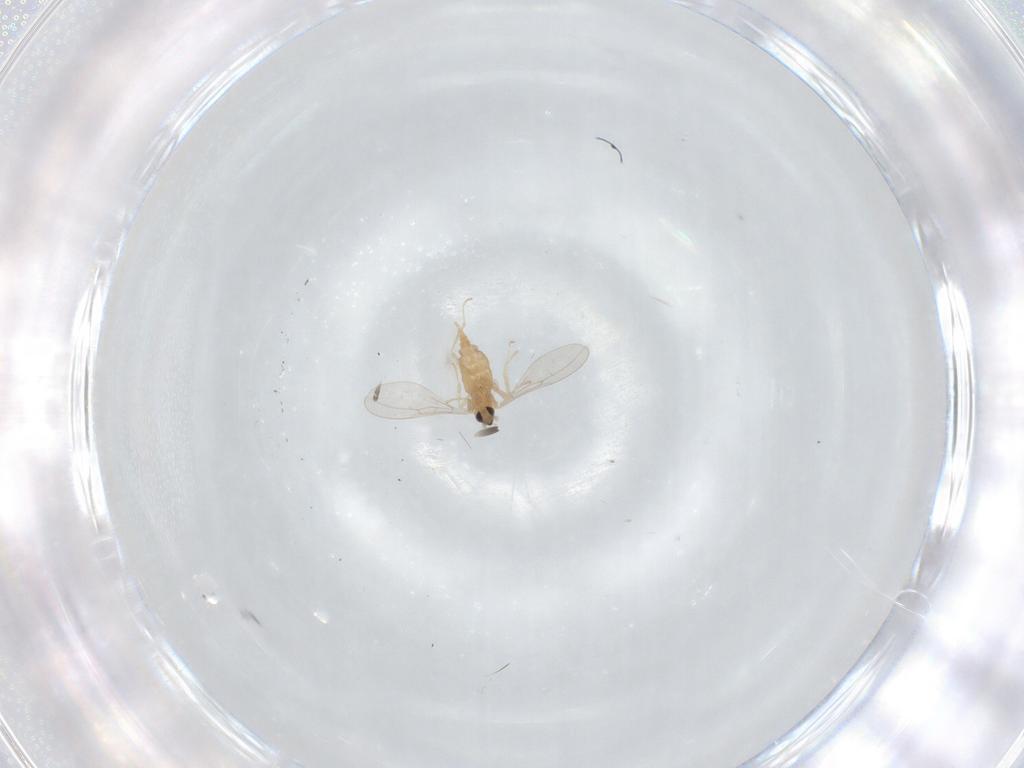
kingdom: Animalia
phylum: Arthropoda
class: Insecta
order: Diptera
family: Cecidomyiidae
